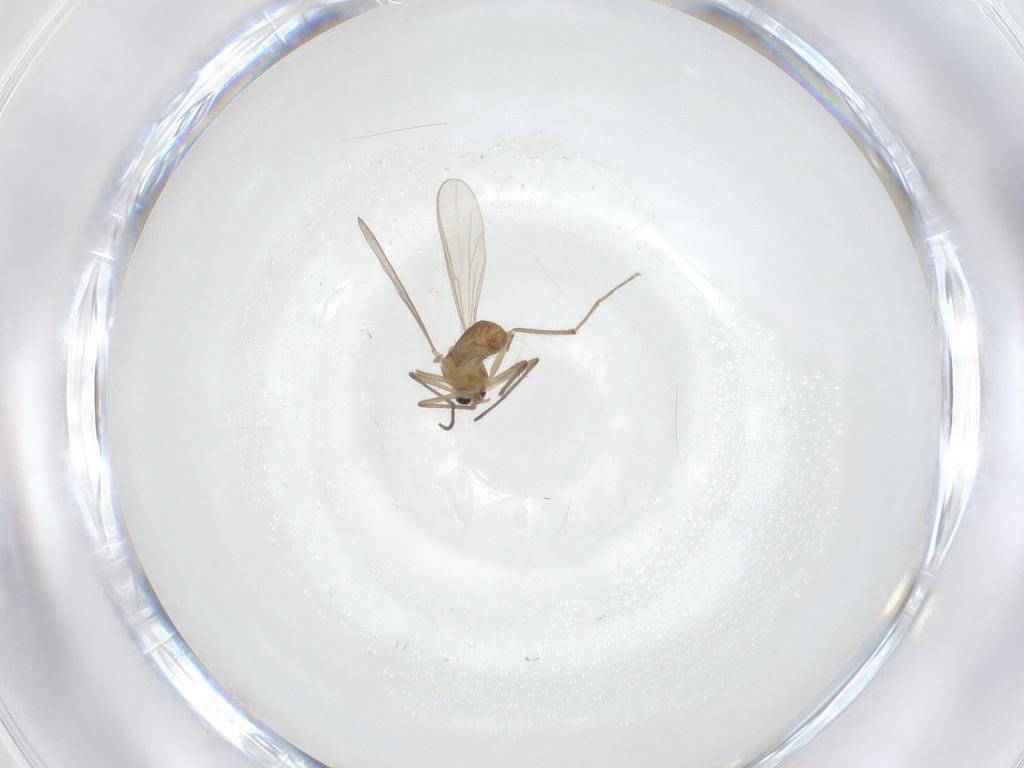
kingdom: Animalia
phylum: Arthropoda
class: Insecta
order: Diptera
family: Chironomidae
